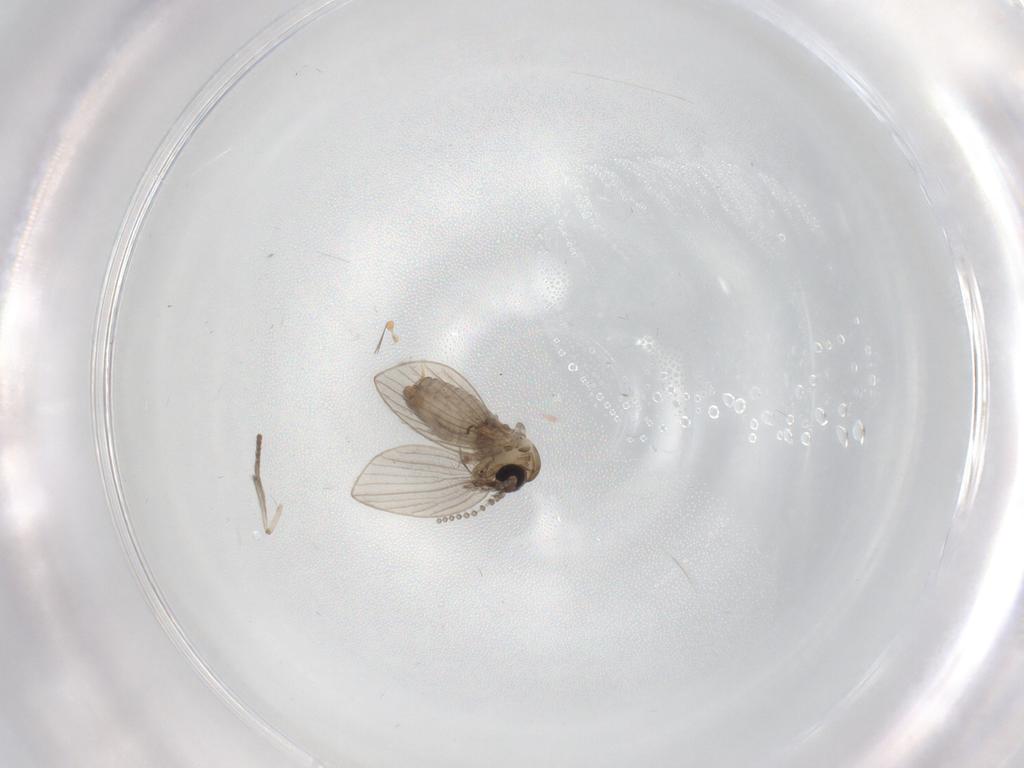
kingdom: Animalia
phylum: Arthropoda
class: Insecta
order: Diptera
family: Psychodidae
